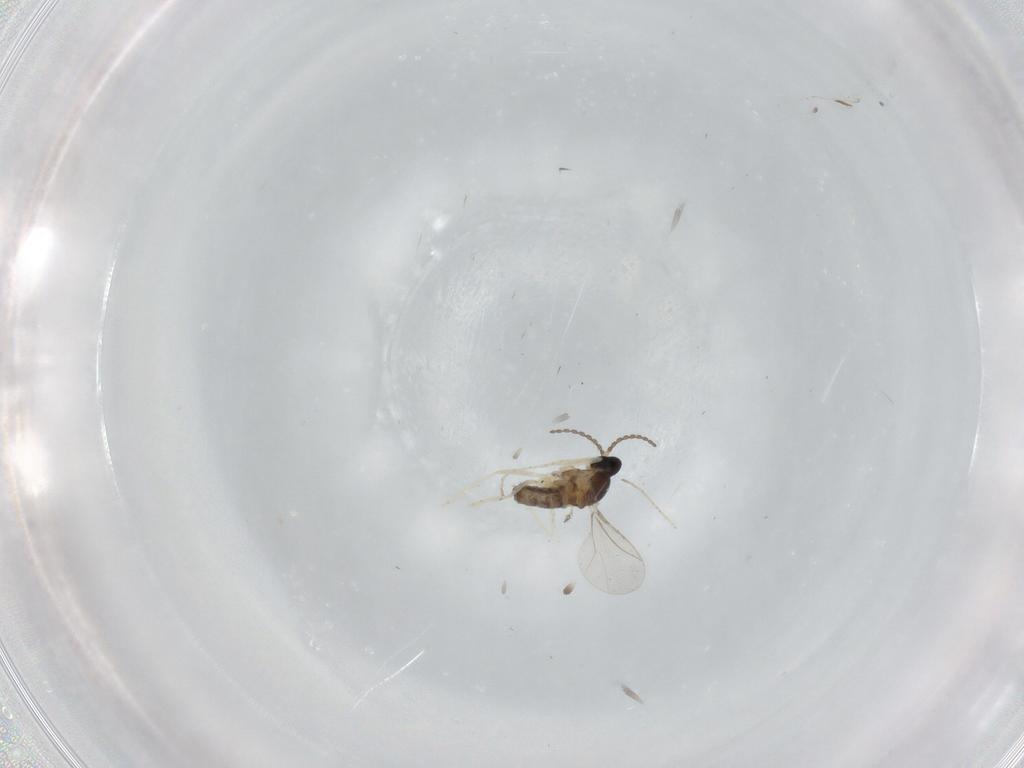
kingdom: Animalia
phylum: Arthropoda
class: Insecta
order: Diptera
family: Cecidomyiidae
